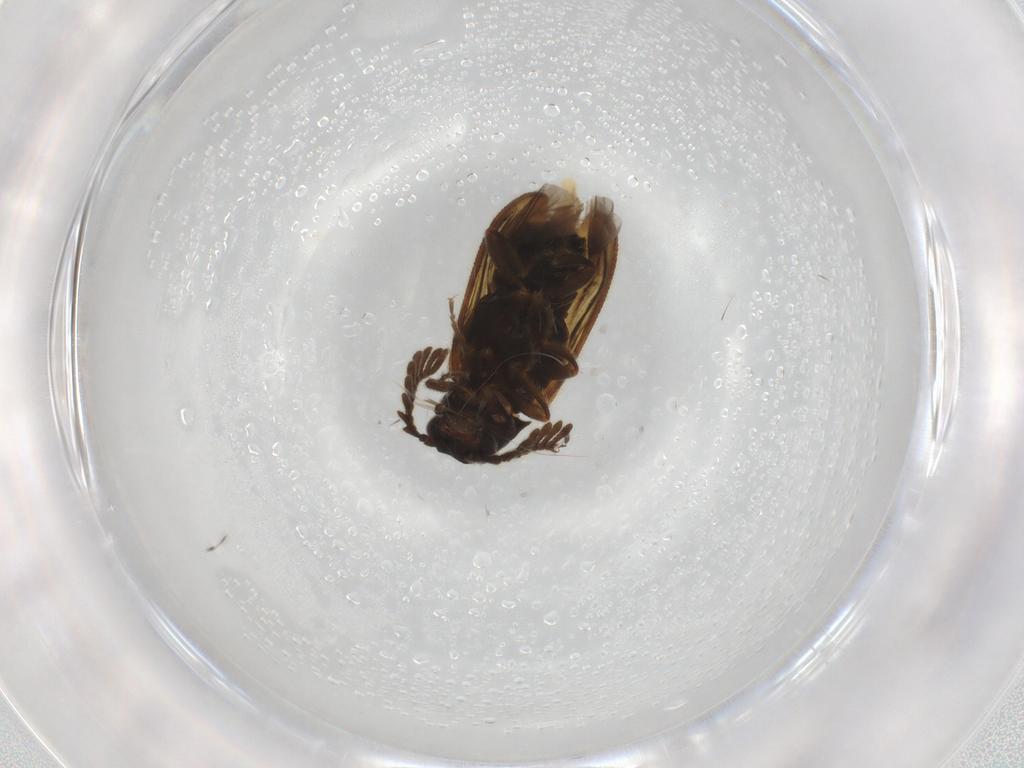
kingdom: Animalia
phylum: Arthropoda
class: Insecta
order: Coleoptera
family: Elateridae
